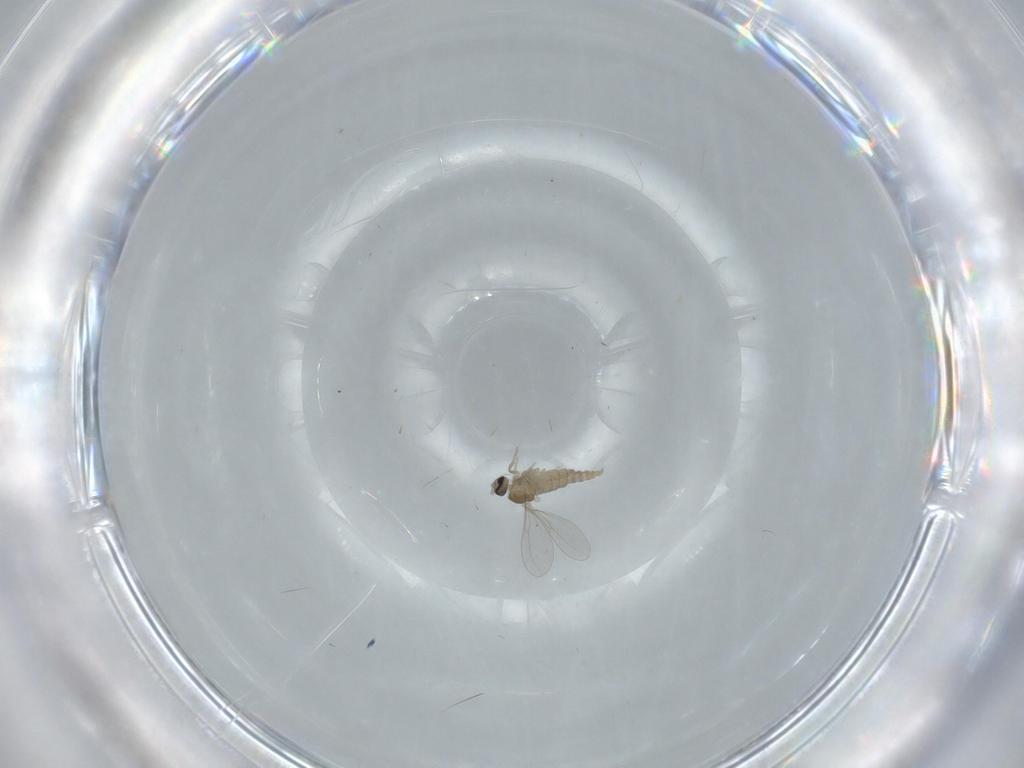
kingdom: Animalia
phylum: Arthropoda
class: Insecta
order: Diptera
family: Cecidomyiidae
